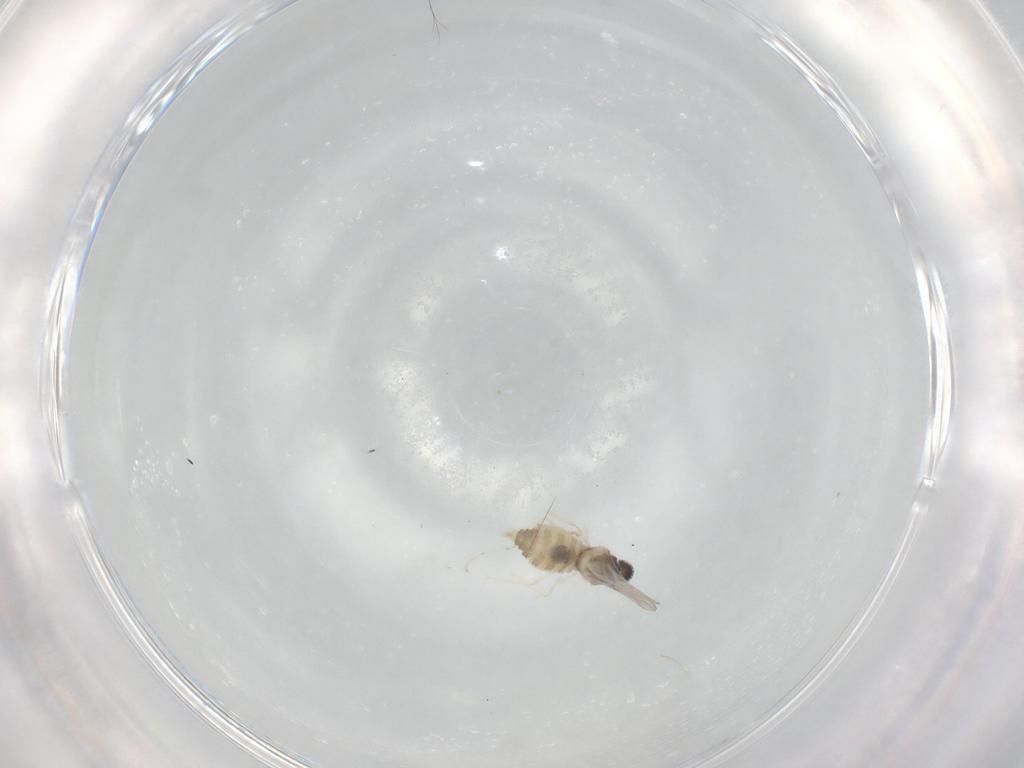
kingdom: Animalia
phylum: Arthropoda
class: Insecta
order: Diptera
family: Cecidomyiidae
